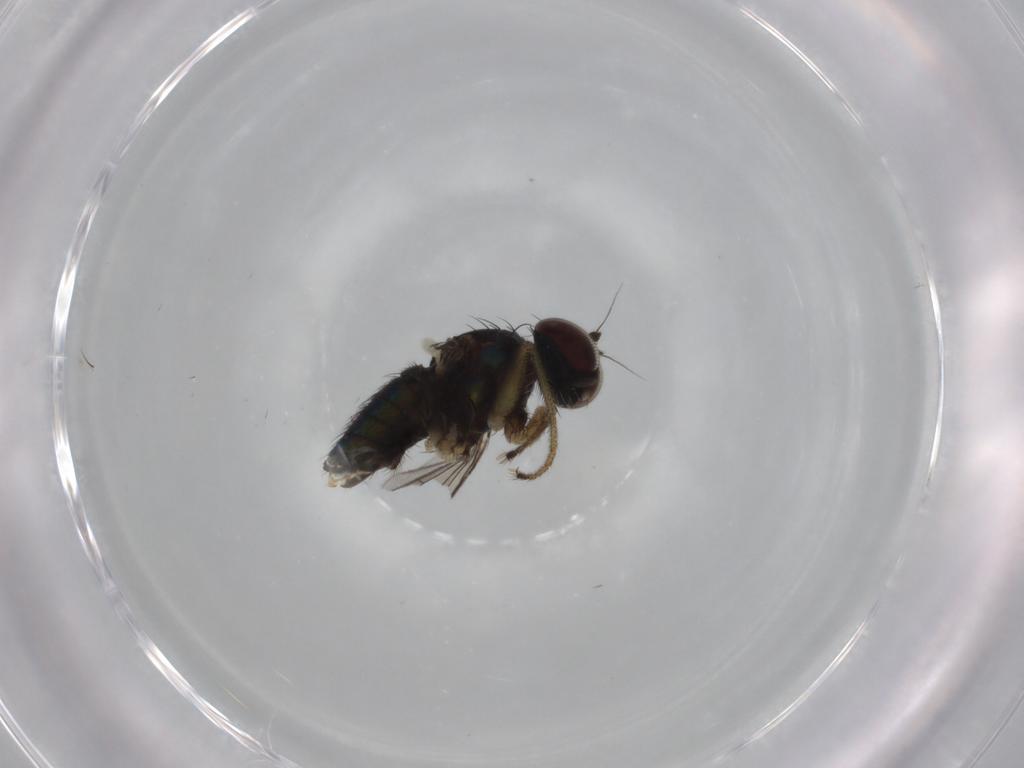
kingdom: Animalia
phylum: Arthropoda
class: Insecta
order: Diptera
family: Dolichopodidae
